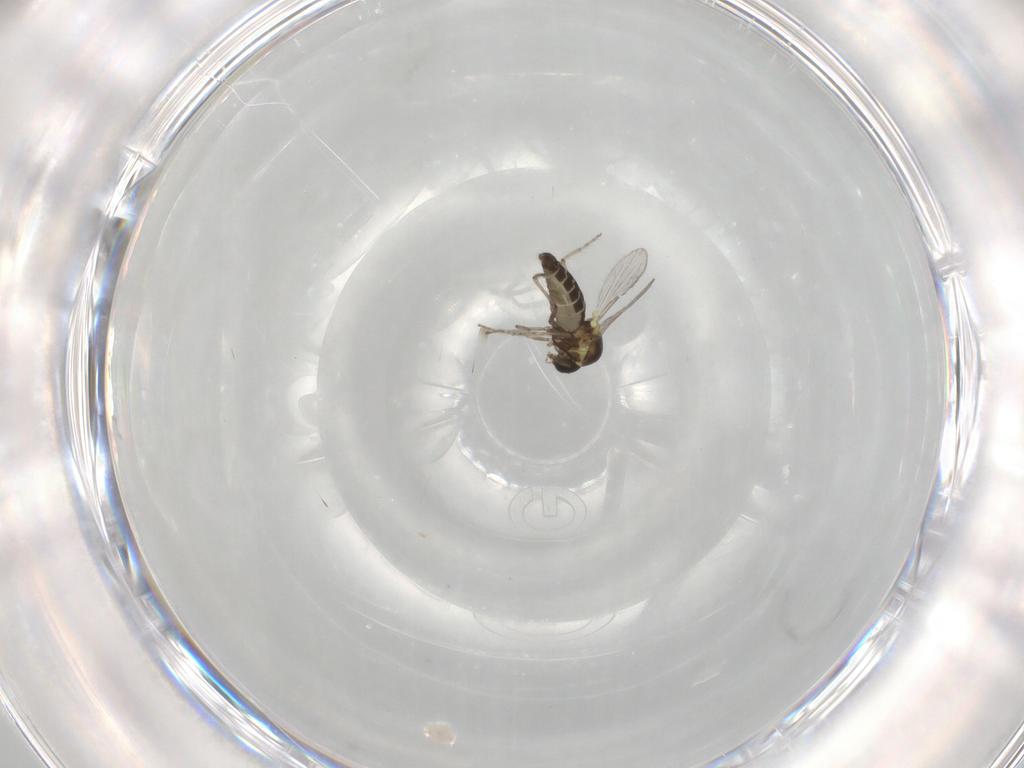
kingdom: Animalia
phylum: Arthropoda
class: Insecta
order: Diptera
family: Ceratopogonidae
